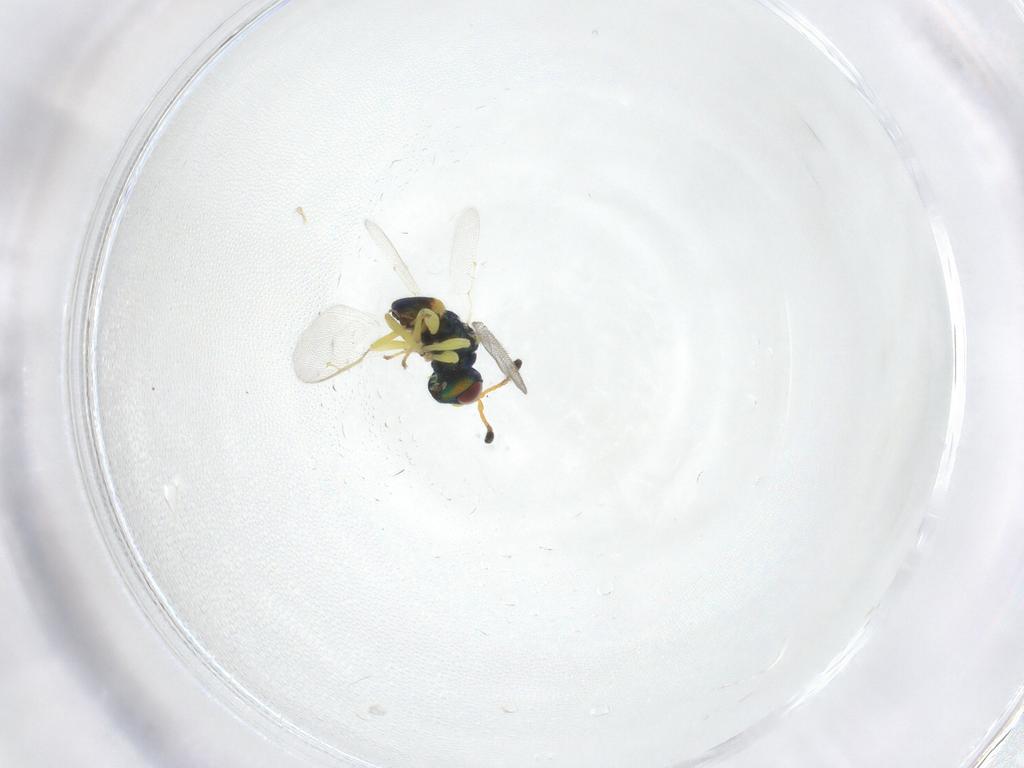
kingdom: Animalia
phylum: Arthropoda
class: Insecta
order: Hymenoptera
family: Pteromalidae
